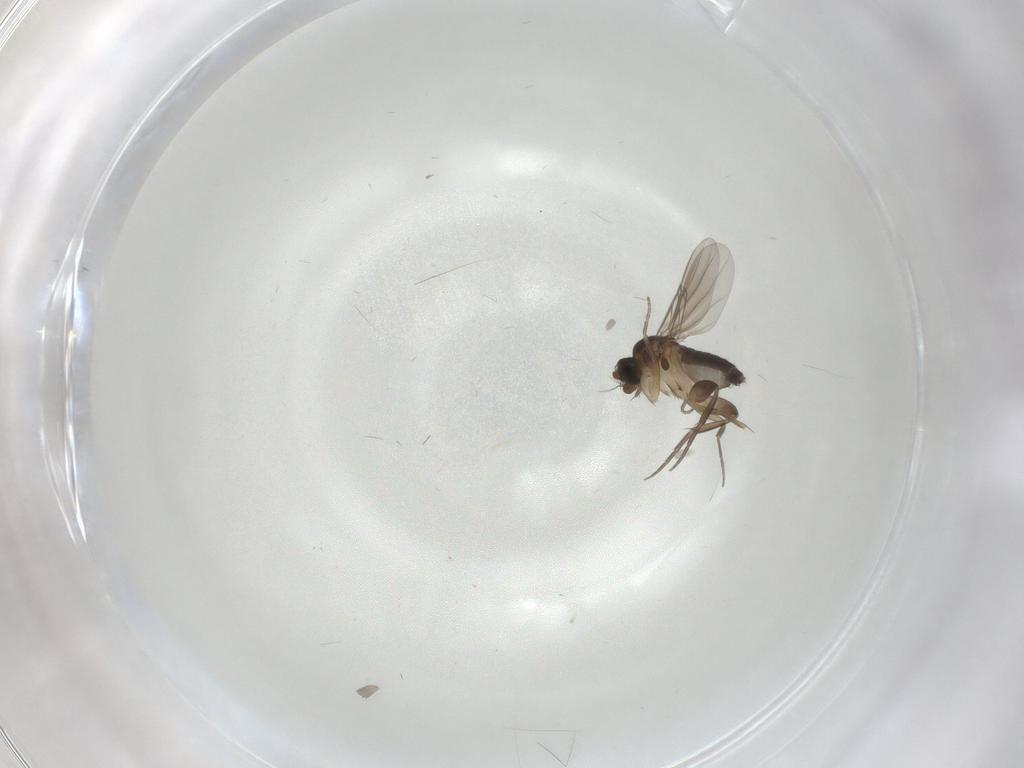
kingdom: Animalia
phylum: Arthropoda
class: Insecta
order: Diptera
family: Phoridae
